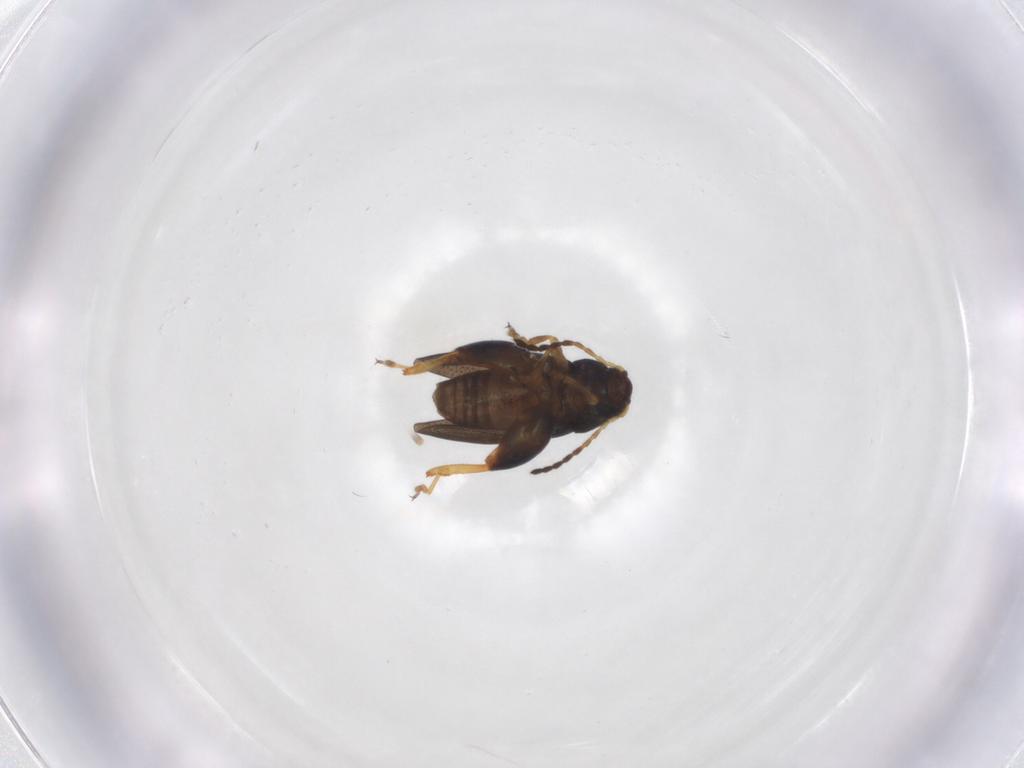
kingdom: Animalia
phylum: Arthropoda
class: Insecta
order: Coleoptera
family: Chrysomelidae
